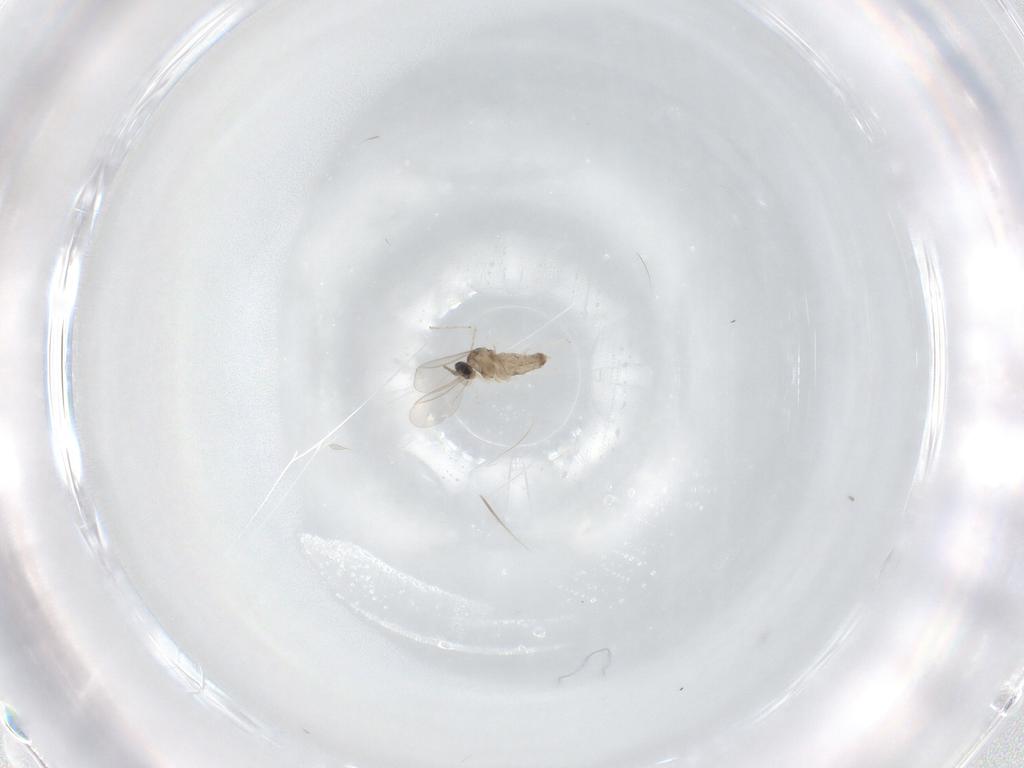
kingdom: Animalia
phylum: Arthropoda
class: Insecta
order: Diptera
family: Cecidomyiidae
